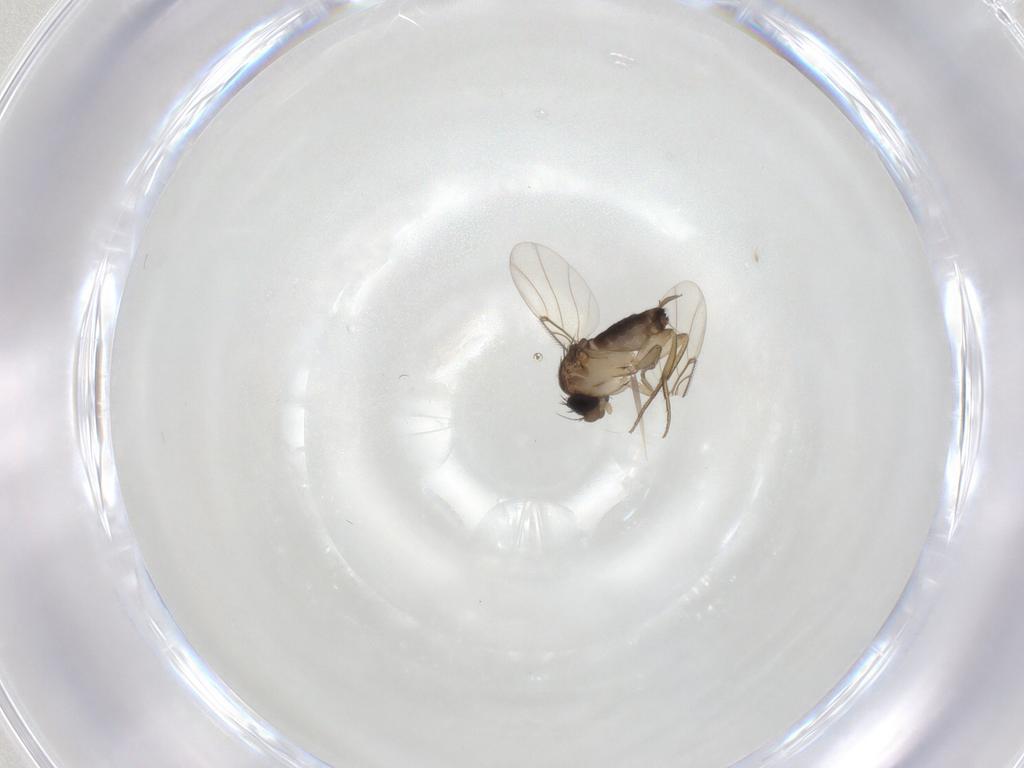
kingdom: Animalia
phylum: Arthropoda
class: Insecta
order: Diptera
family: Phoridae
